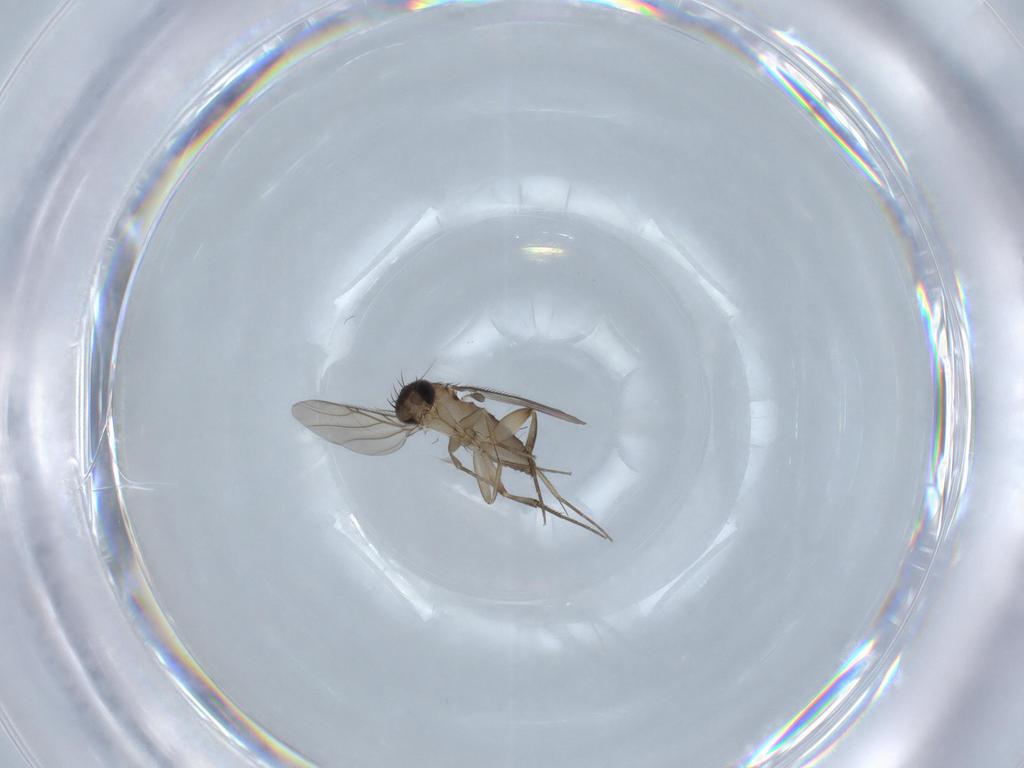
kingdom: Animalia
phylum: Arthropoda
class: Insecta
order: Diptera
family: Phoridae
